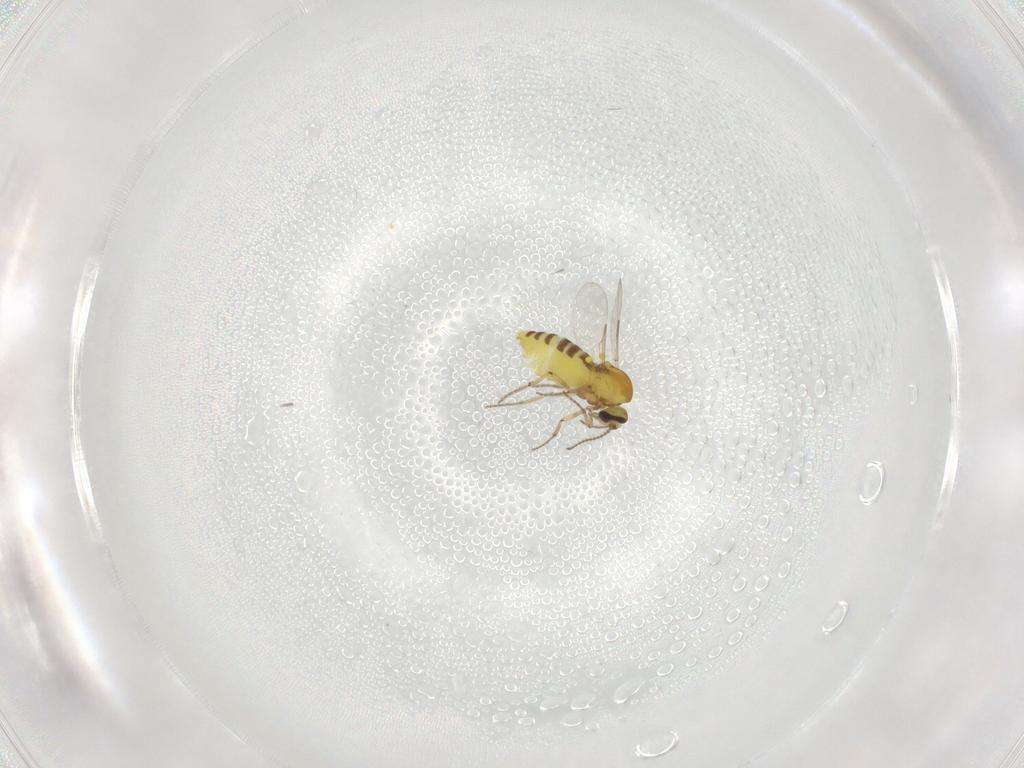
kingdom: Animalia
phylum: Arthropoda
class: Insecta
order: Diptera
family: Ceratopogonidae
